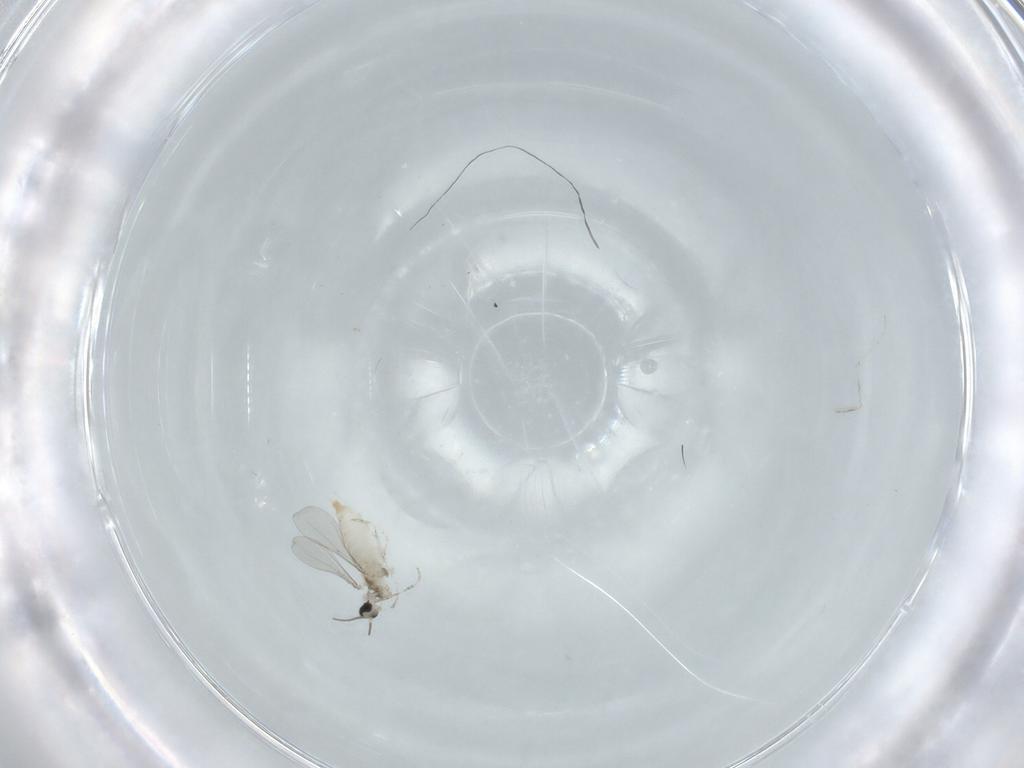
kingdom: Animalia
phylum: Arthropoda
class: Insecta
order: Diptera
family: Cecidomyiidae
